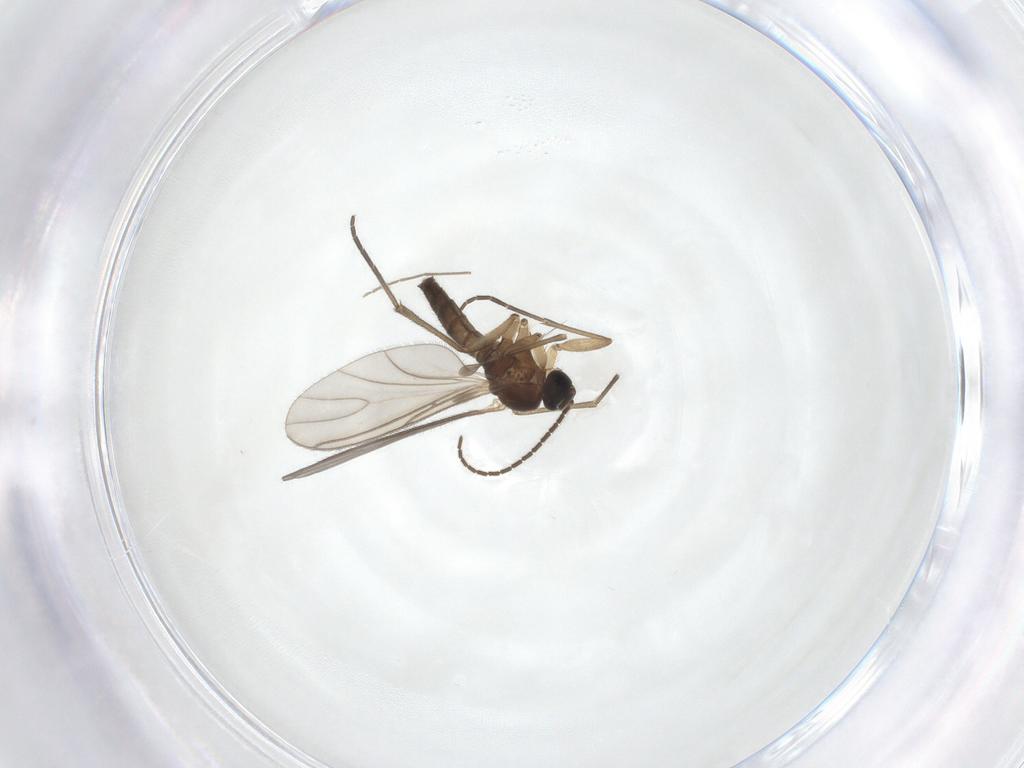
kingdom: Animalia
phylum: Arthropoda
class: Insecta
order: Diptera
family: Sciaridae
